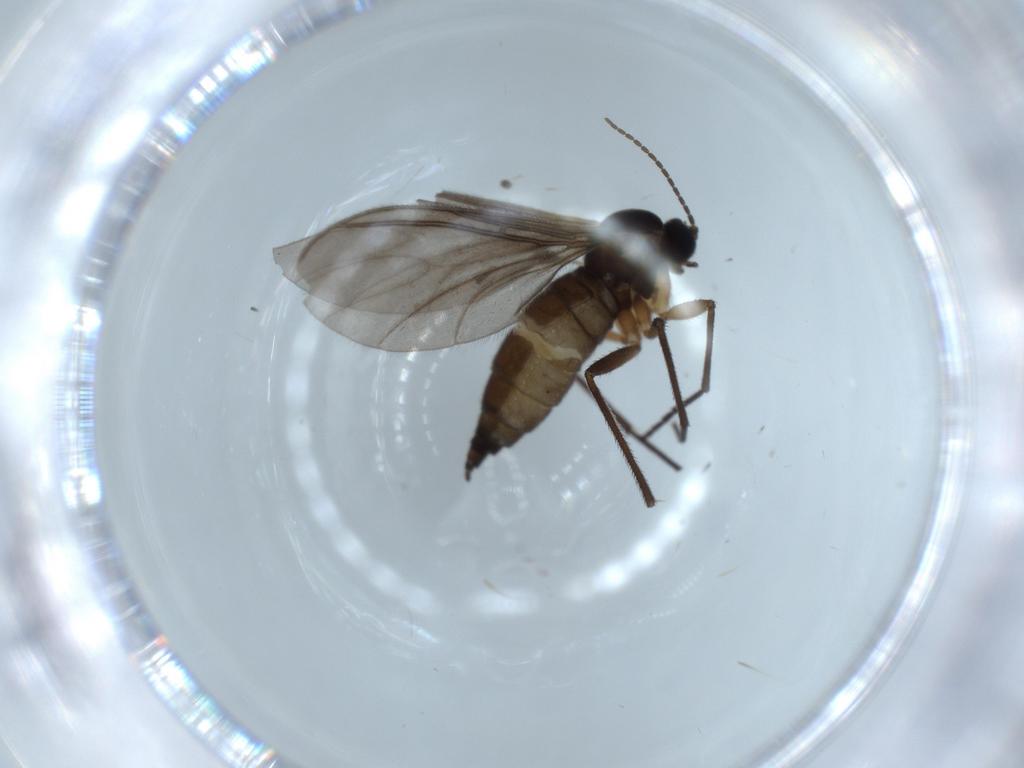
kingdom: Animalia
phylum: Arthropoda
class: Insecta
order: Diptera
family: Sciaridae
